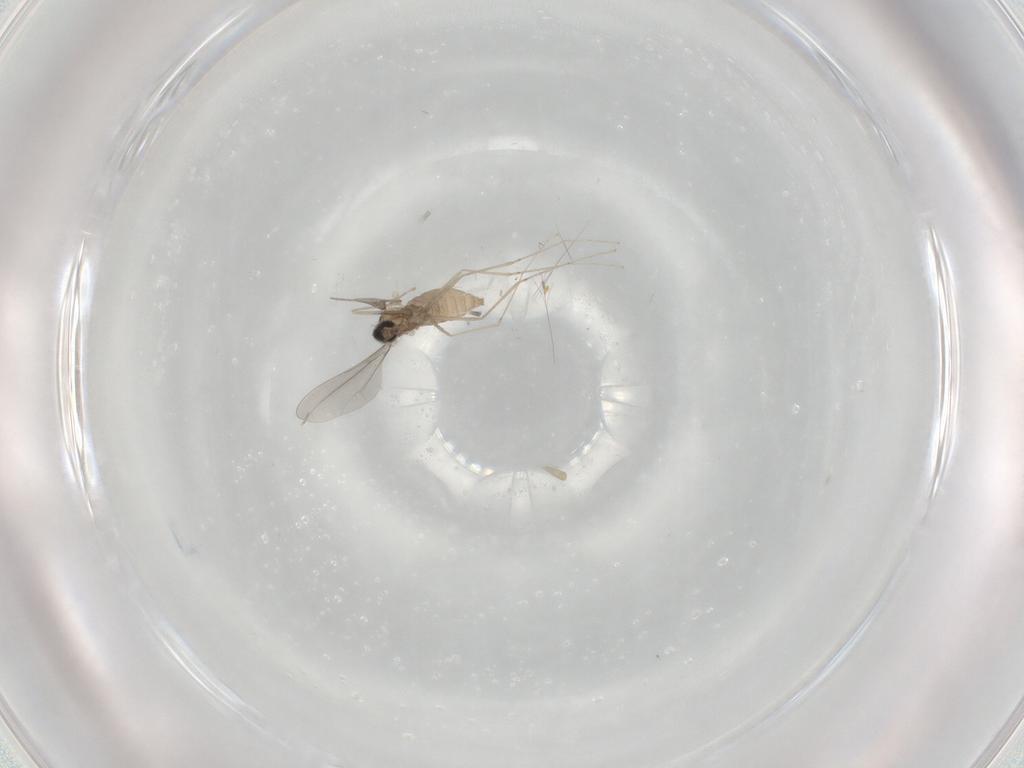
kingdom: Animalia
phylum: Arthropoda
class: Insecta
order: Diptera
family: Cecidomyiidae
